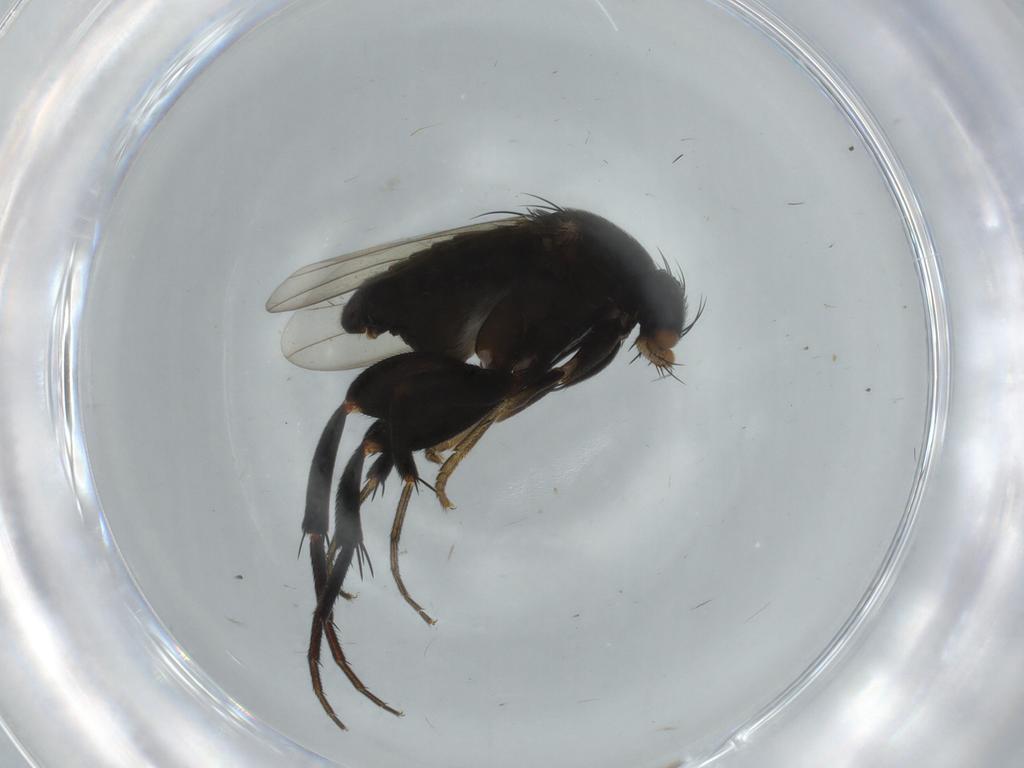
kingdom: Animalia
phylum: Arthropoda
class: Insecta
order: Diptera
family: Phoridae
